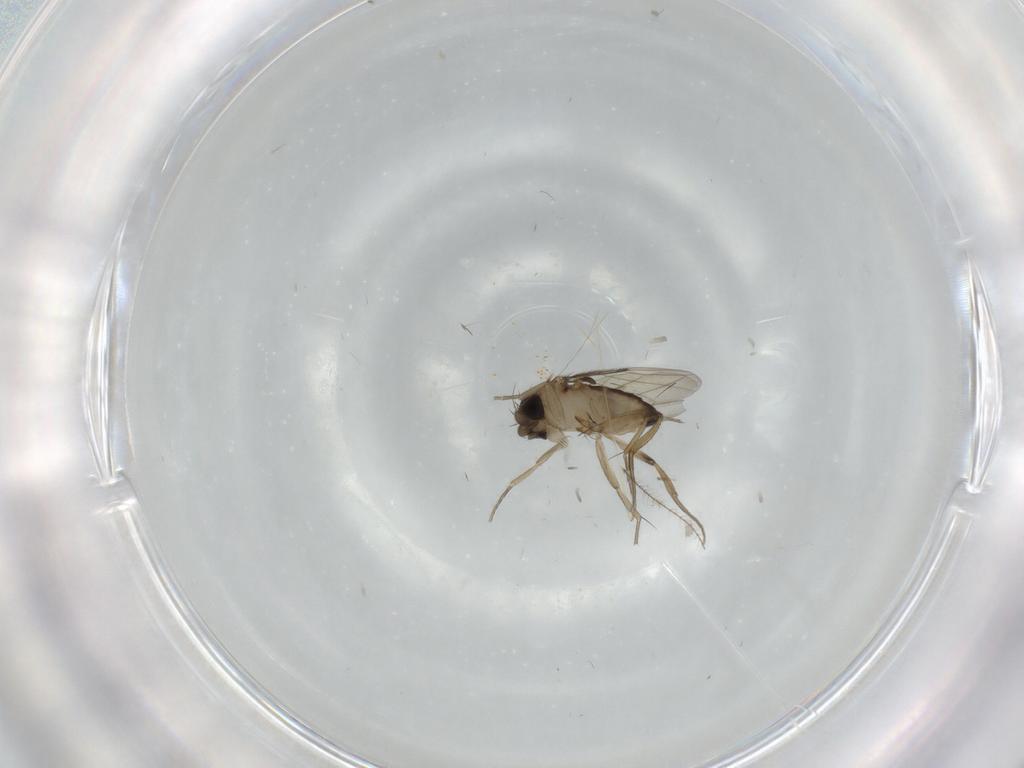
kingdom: Animalia
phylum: Arthropoda
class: Insecta
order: Diptera
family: Phoridae
